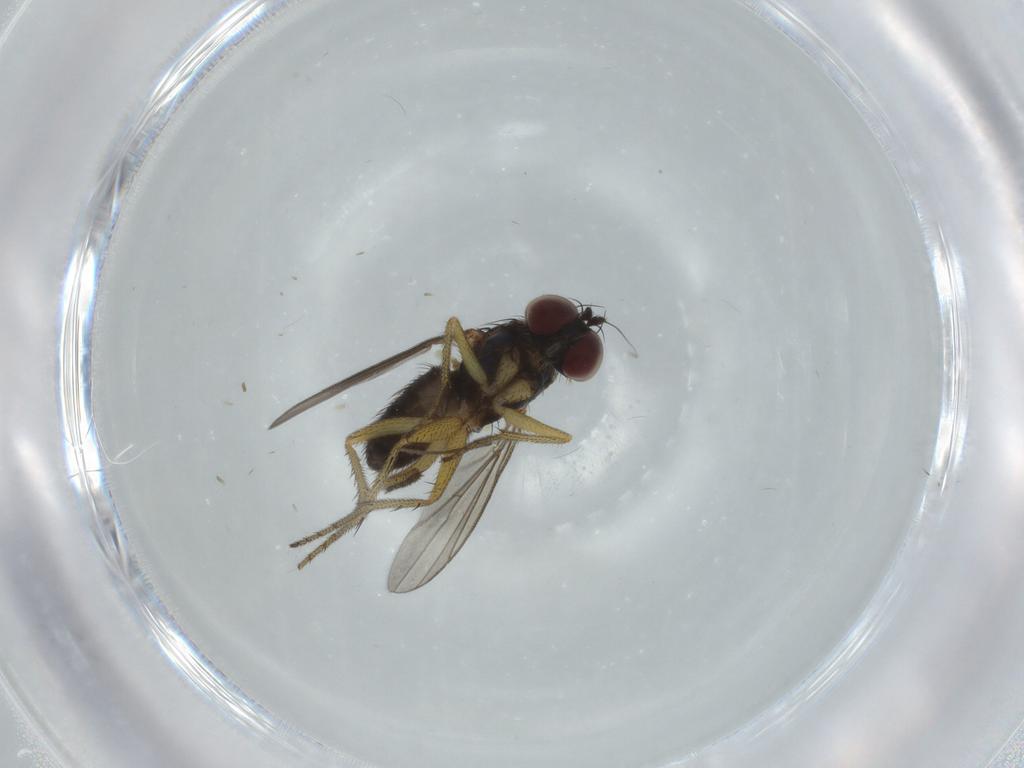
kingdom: Animalia
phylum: Arthropoda
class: Insecta
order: Diptera
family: Dolichopodidae
